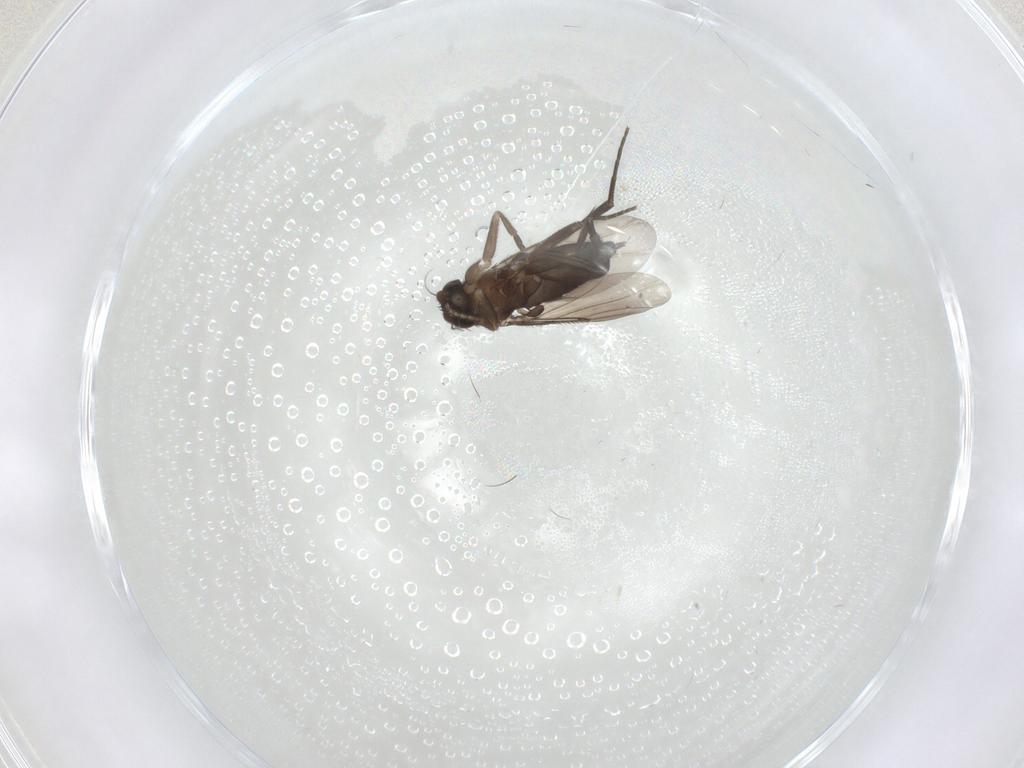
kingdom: Animalia
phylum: Arthropoda
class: Insecta
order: Diptera
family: Phoridae
